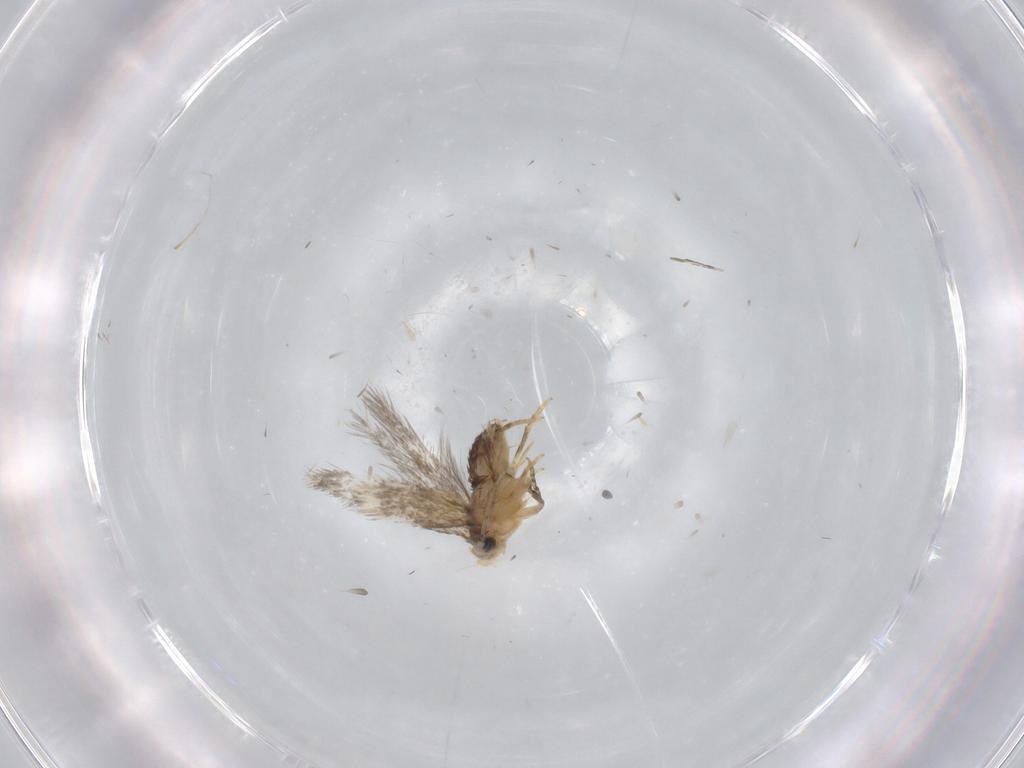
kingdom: Animalia
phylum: Arthropoda
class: Insecta
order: Lepidoptera
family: Nepticulidae
